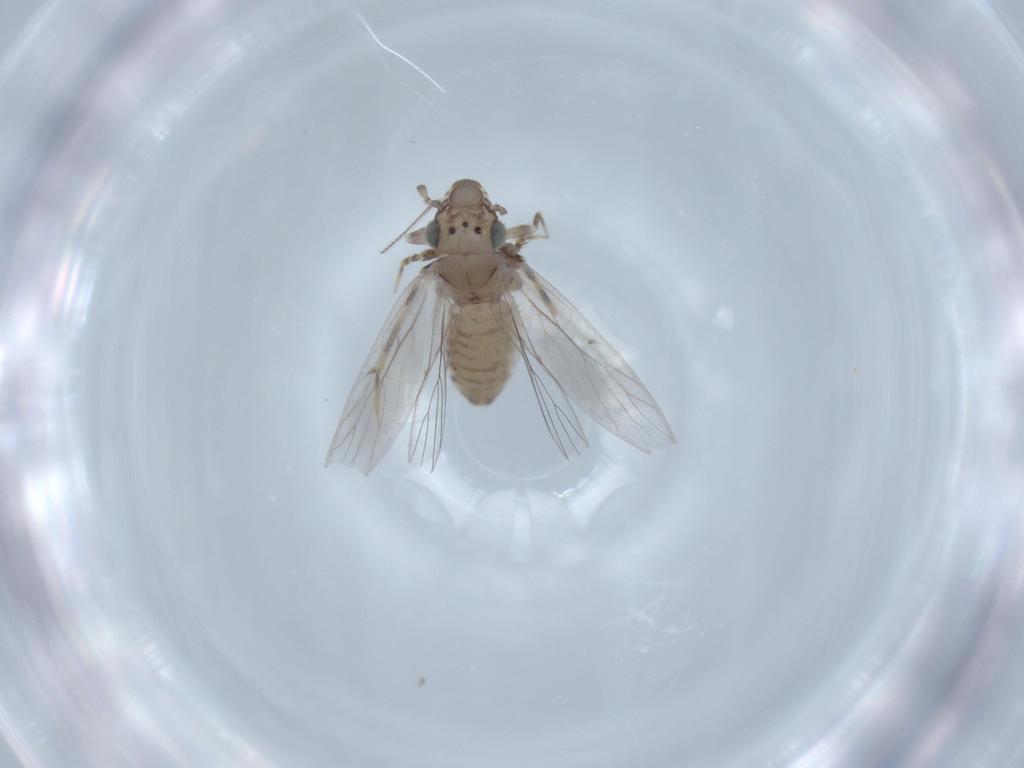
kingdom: Animalia
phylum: Arthropoda
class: Insecta
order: Psocodea
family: Lepidopsocidae
